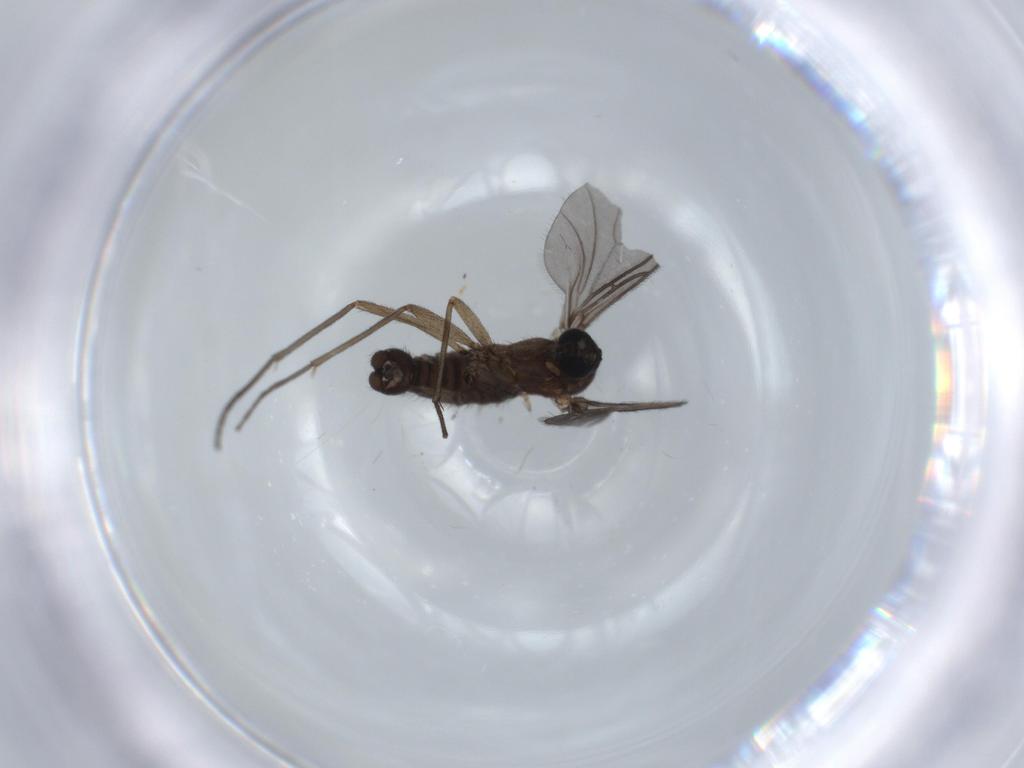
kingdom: Animalia
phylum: Arthropoda
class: Insecta
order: Diptera
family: Sciaridae
